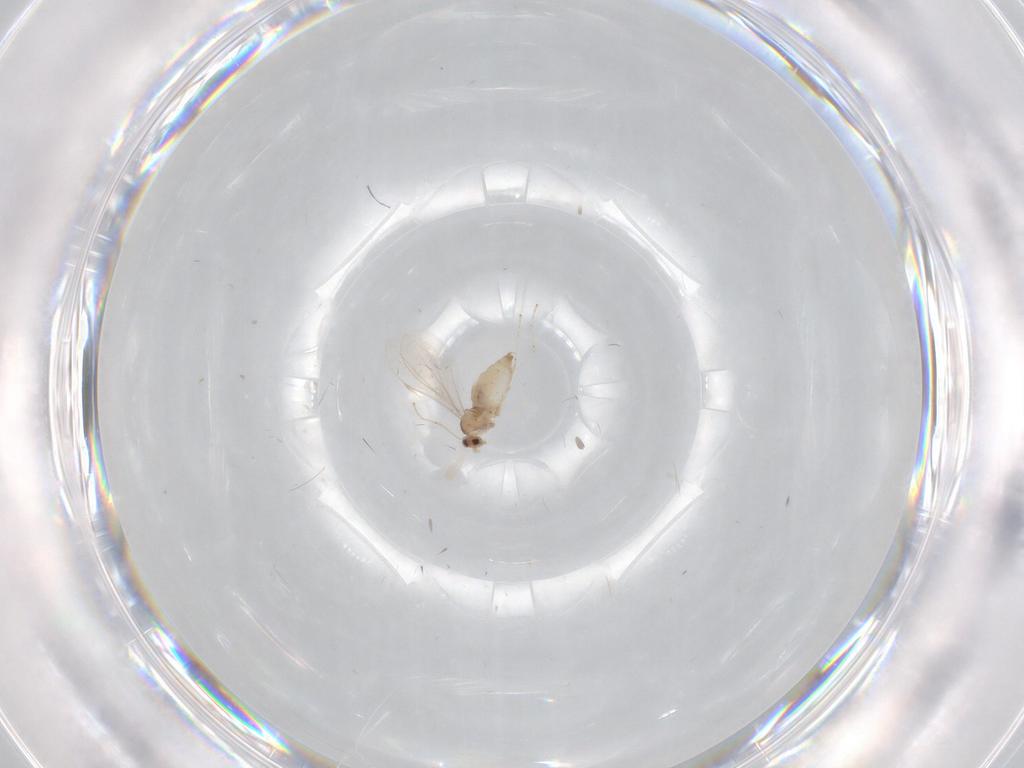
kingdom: Animalia
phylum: Arthropoda
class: Insecta
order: Diptera
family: Cecidomyiidae
